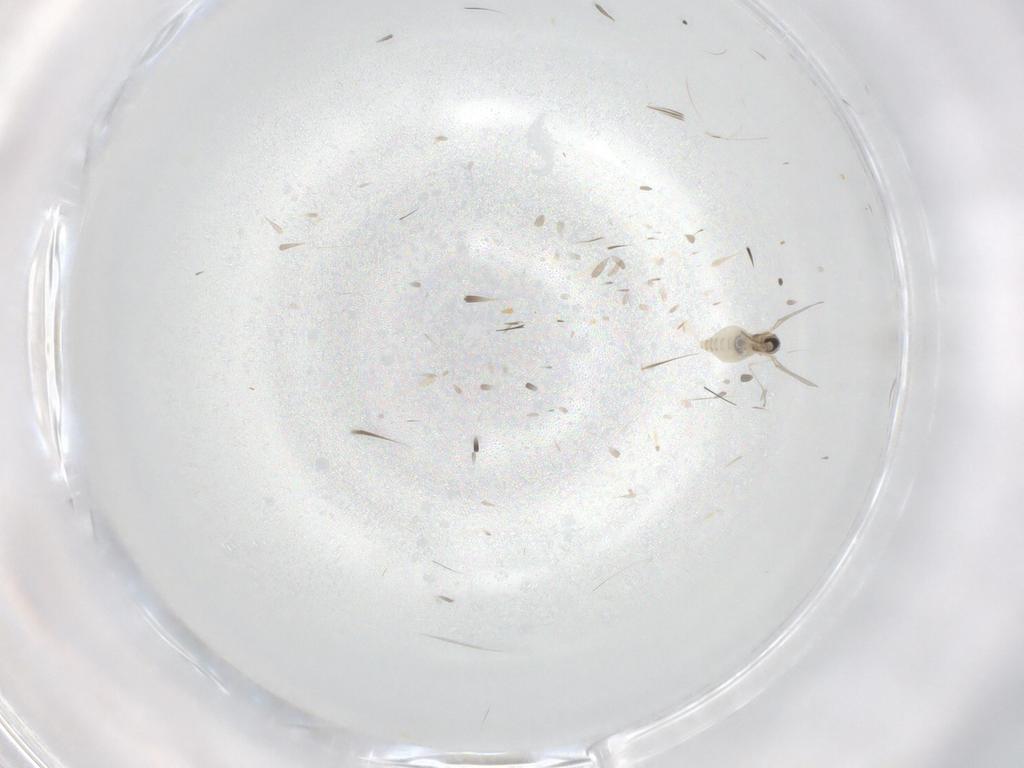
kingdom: Animalia
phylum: Arthropoda
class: Insecta
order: Diptera
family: Cecidomyiidae
